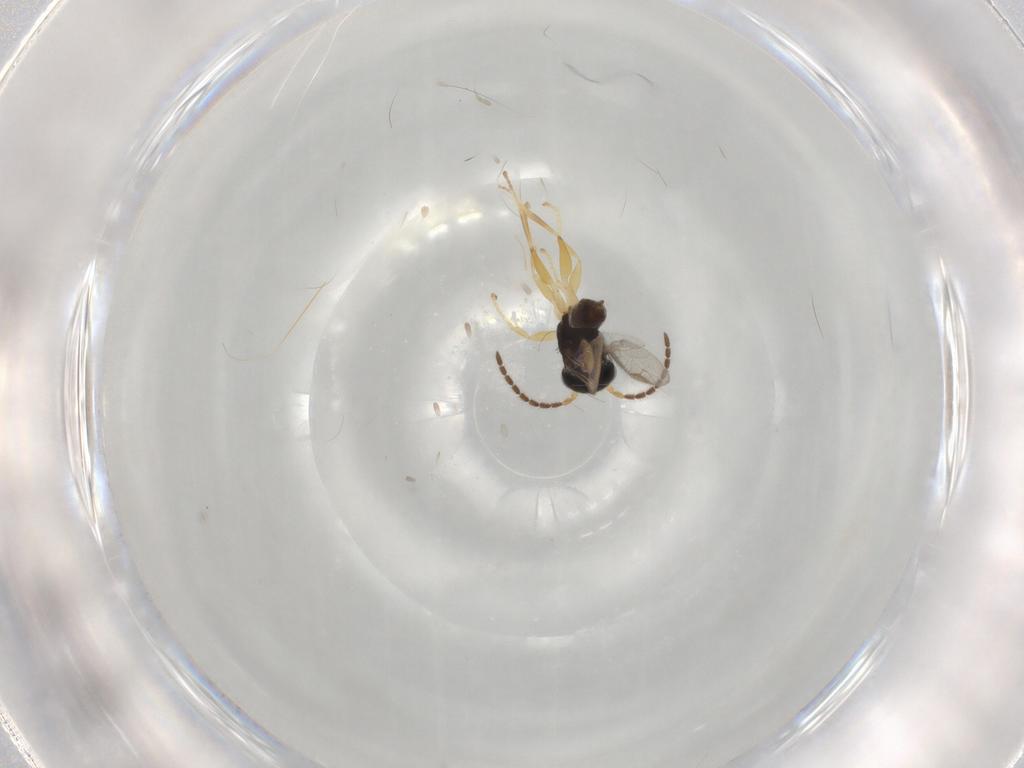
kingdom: Animalia
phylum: Arthropoda
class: Insecta
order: Hymenoptera
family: Dryinidae
